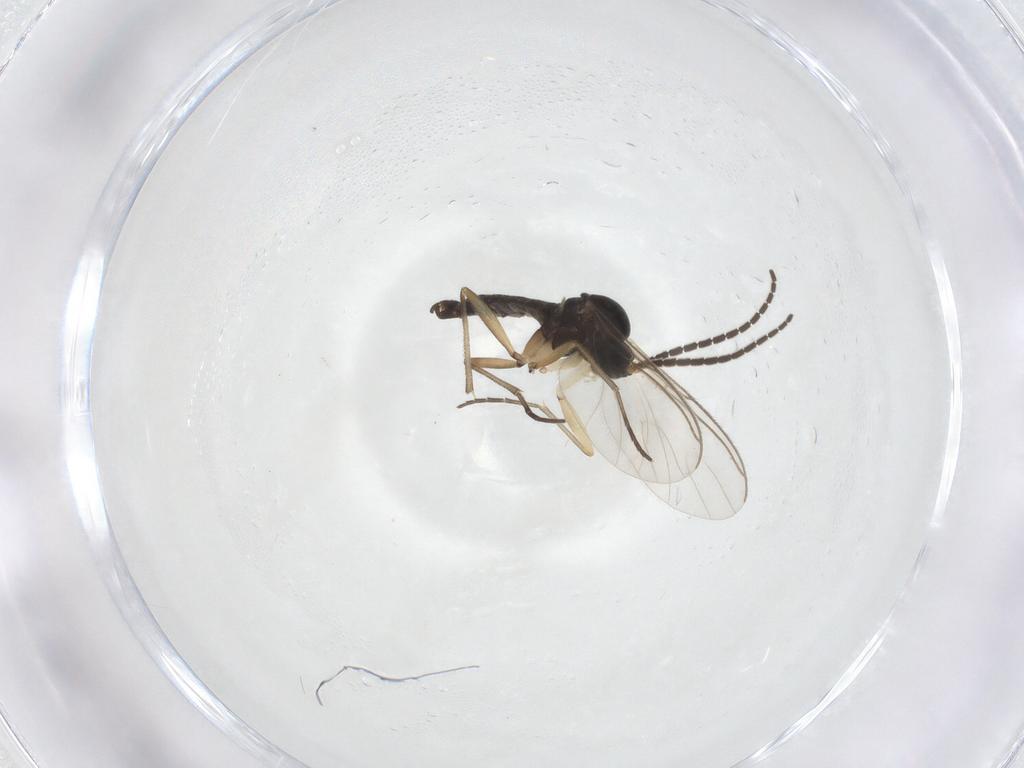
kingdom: Animalia
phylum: Arthropoda
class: Insecta
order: Diptera
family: Sciaridae
